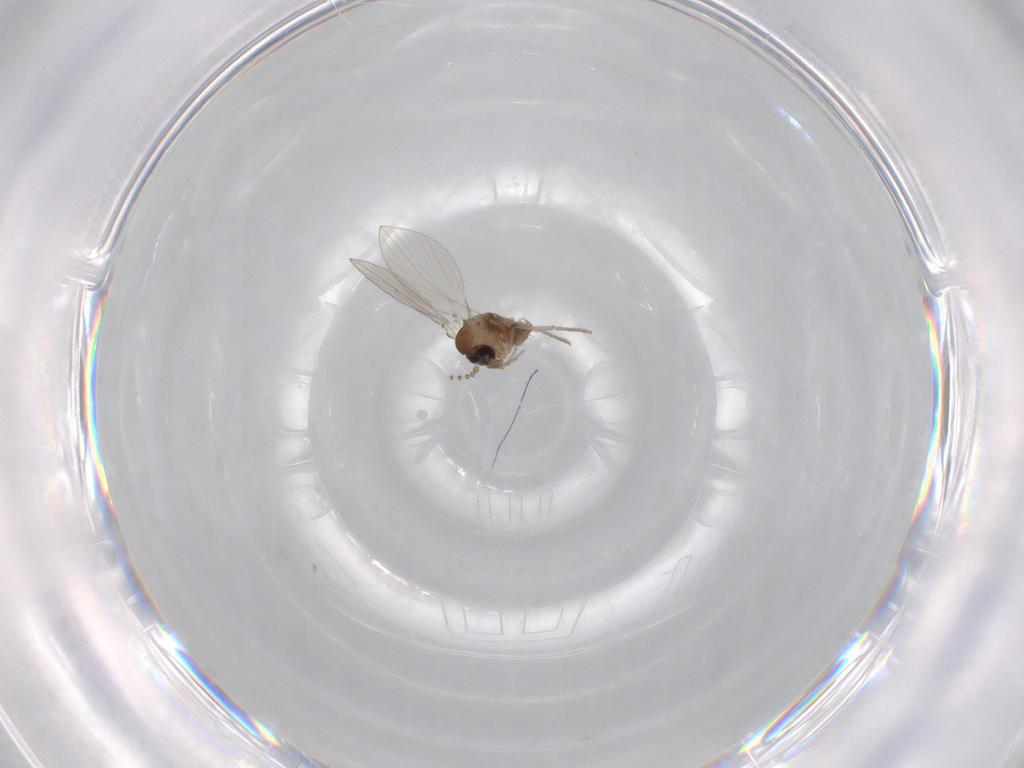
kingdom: Animalia
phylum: Arthropoda
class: Insecta
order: Diptera
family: Psychodidae
